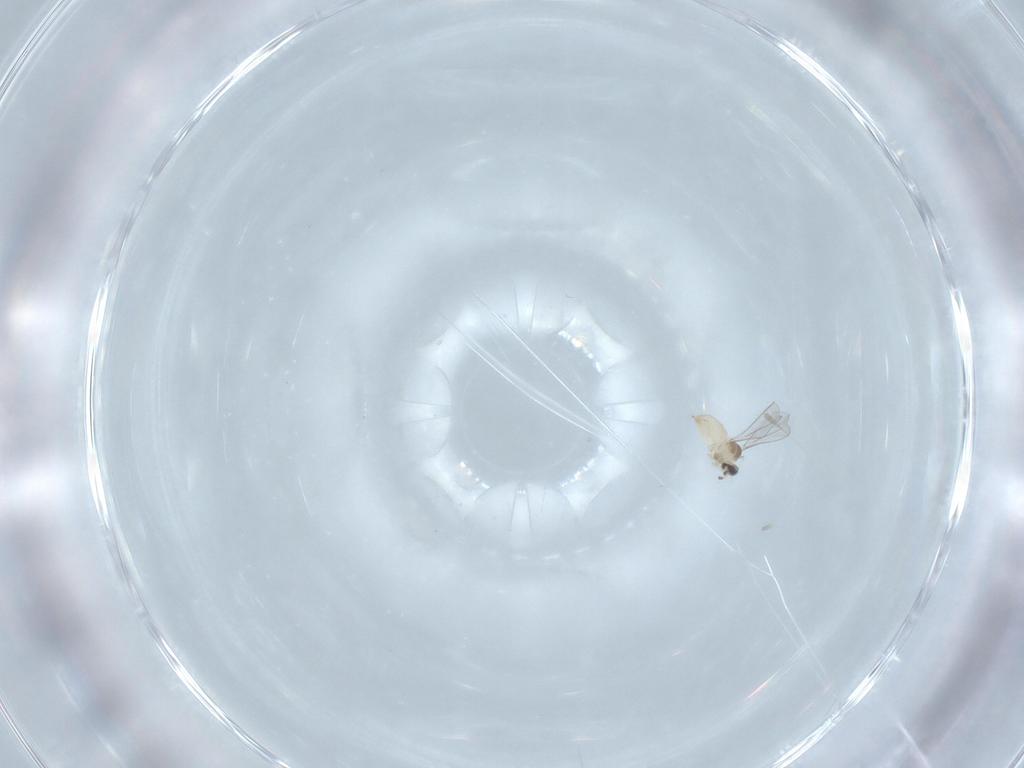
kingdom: Animalia
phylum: Arthropoda
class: Insecta
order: Diptera
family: Cecidomyiidae
